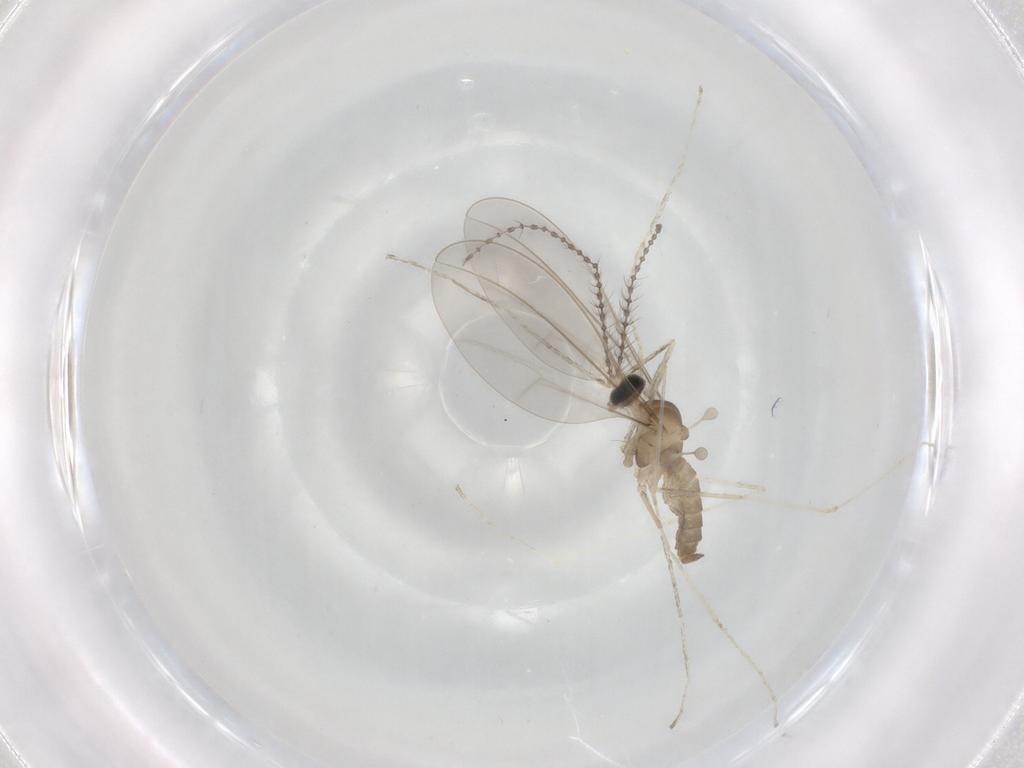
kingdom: Animalia
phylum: Arthropoda
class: Insecta
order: Diptera
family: Cecidomyiidae
